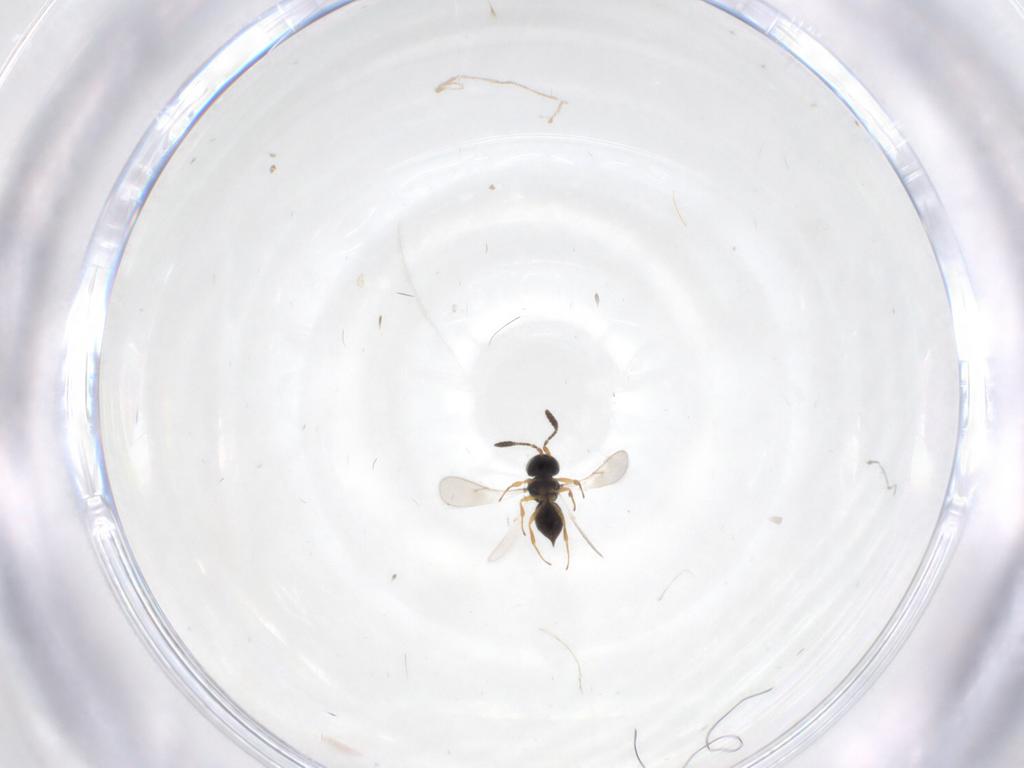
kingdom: Animalia
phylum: Arthropoda
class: Insecta
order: Hymenoptera
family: Scelionidae
